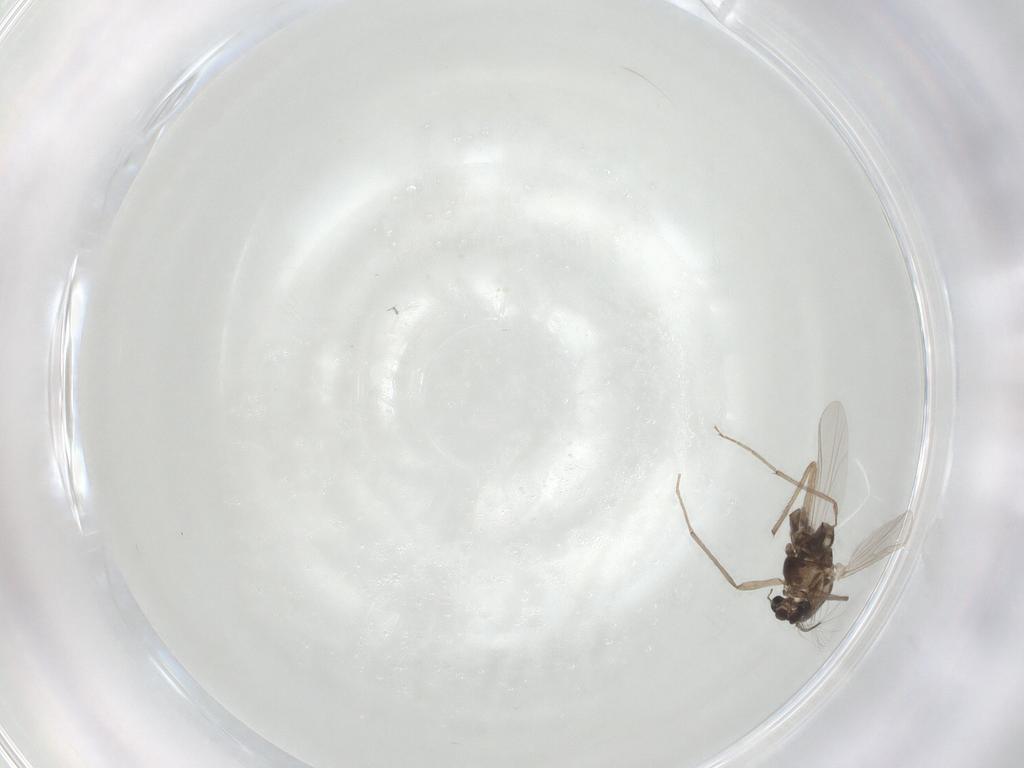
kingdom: Animalia
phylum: Arthropoda
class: Insecta
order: Diptera
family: Chironomidae
